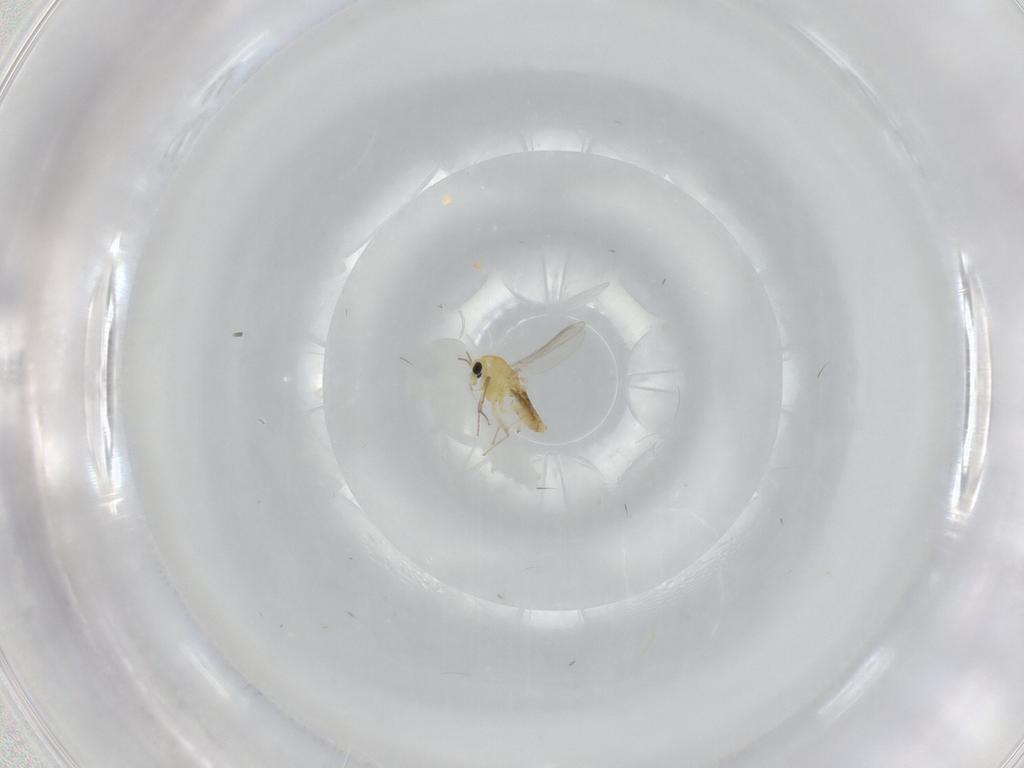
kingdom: Animalia
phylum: Arthropoda
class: Insecta
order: Diptera
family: Chironomidae
